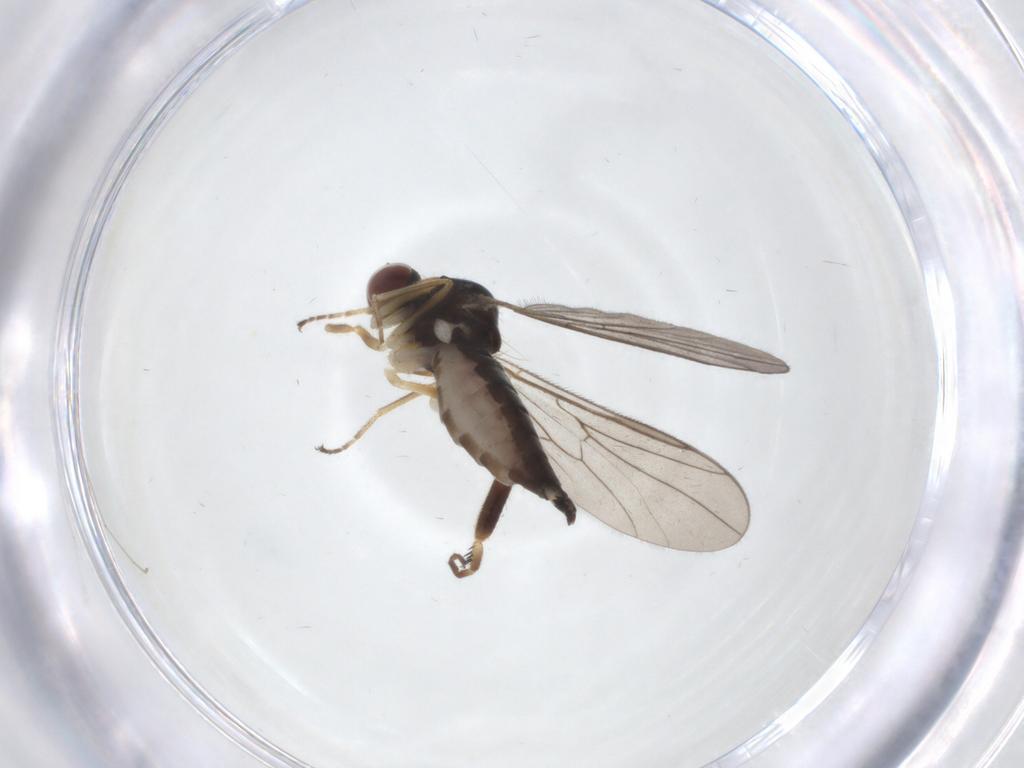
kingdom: Animalia
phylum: Arthropoda
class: Insecta
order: Diptera
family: Hybotidae
